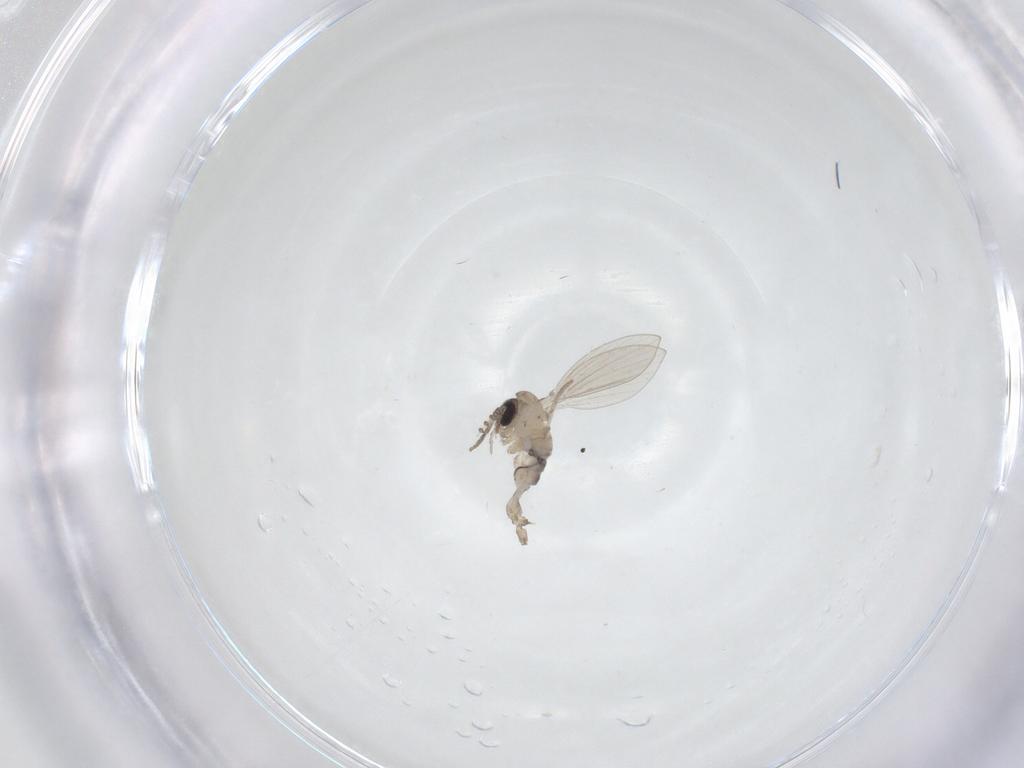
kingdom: Animalia
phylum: Arthropoda
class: Insecta
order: Diptera
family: Psychodidae
